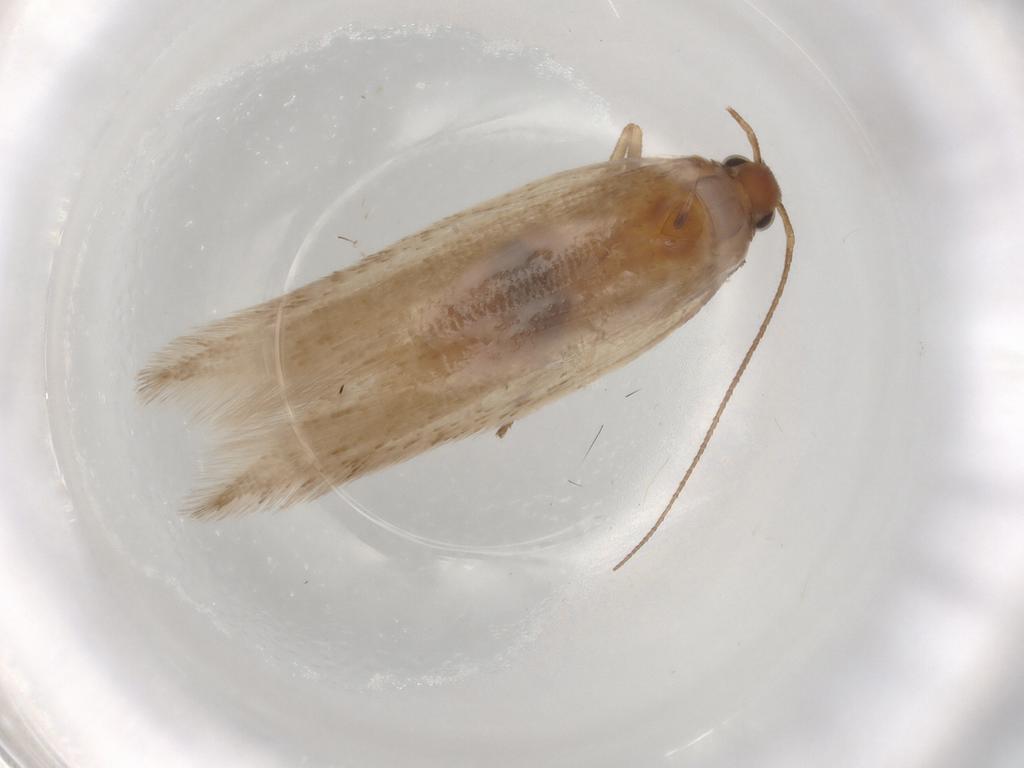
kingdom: Animalia
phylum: Arthropoda
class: Insecta
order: Lepidoptera
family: Gelechiidae
